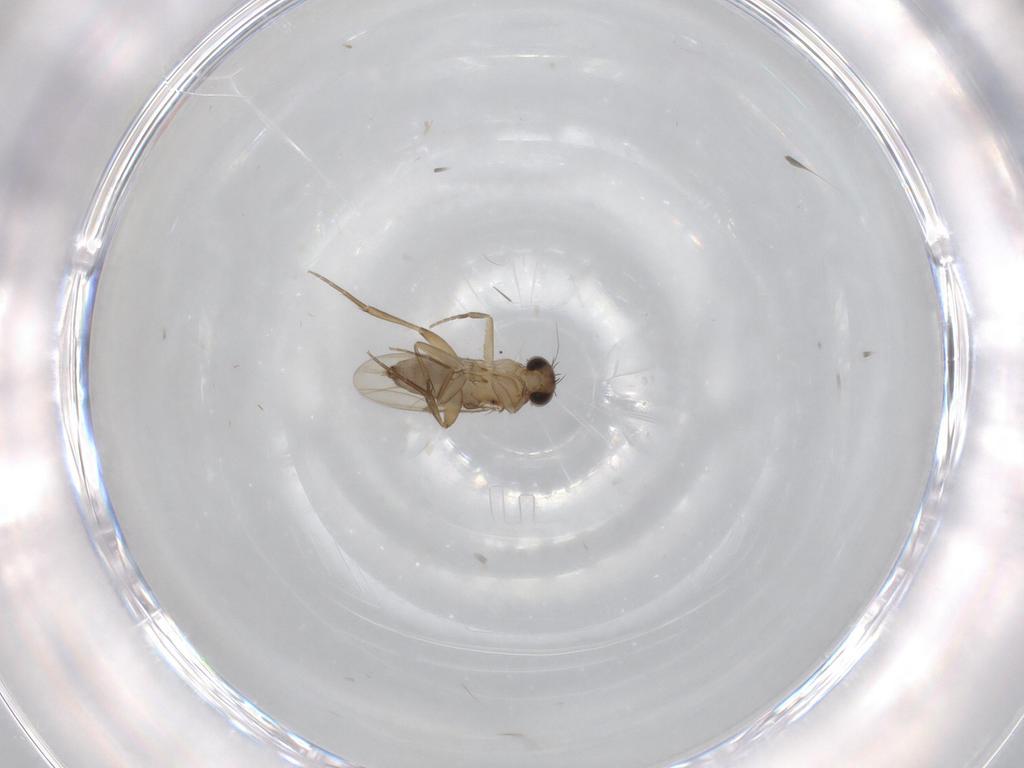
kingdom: Animalia
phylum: Arthropoda
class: Insecta
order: Diptera
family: Phoridae
